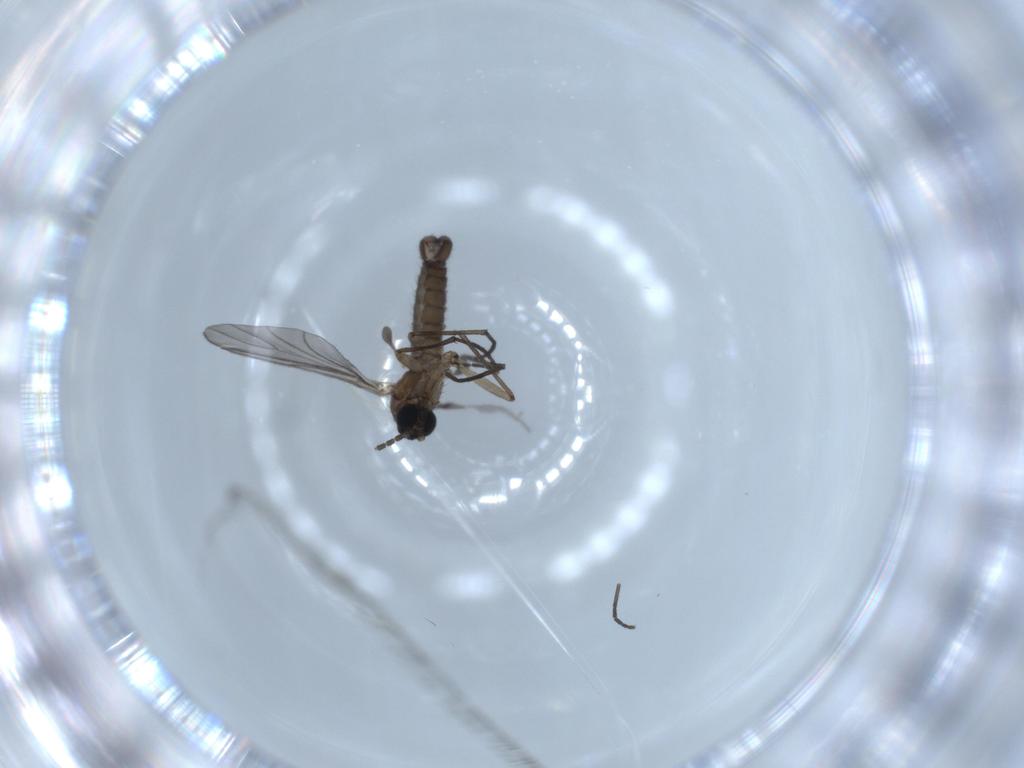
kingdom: Animalia
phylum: Arthropoda
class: Insecta
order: Diptera
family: Sciaridae
